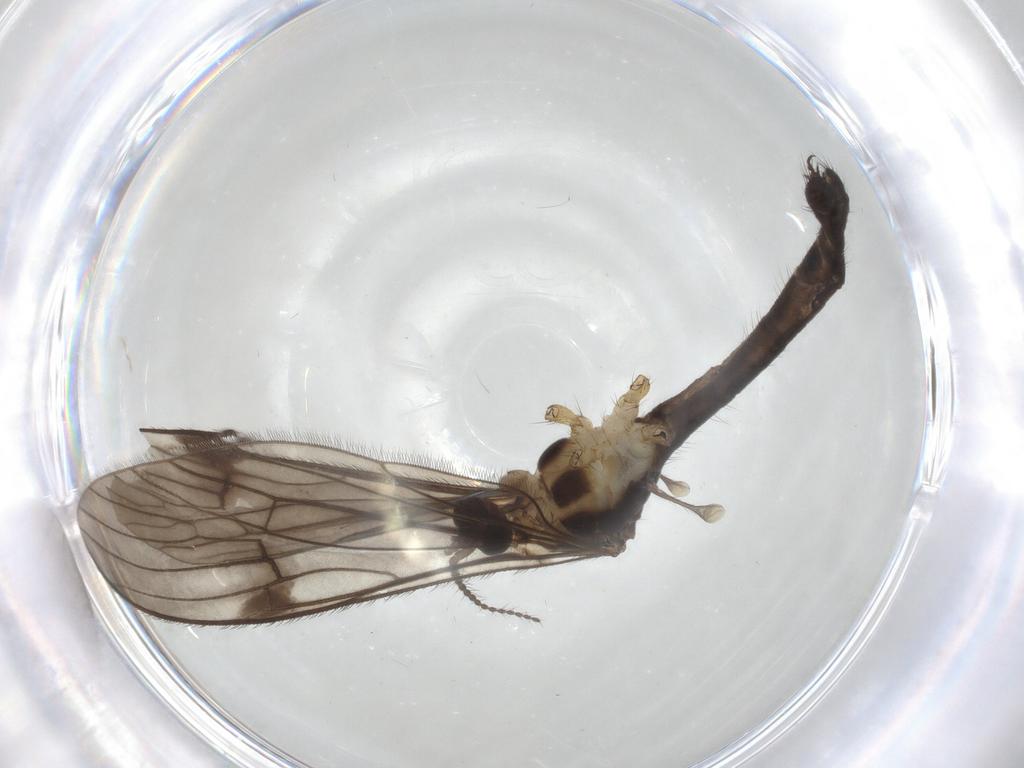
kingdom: Animalia
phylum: Arthropoda
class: Insecta
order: Diptera
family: Limoniidae
